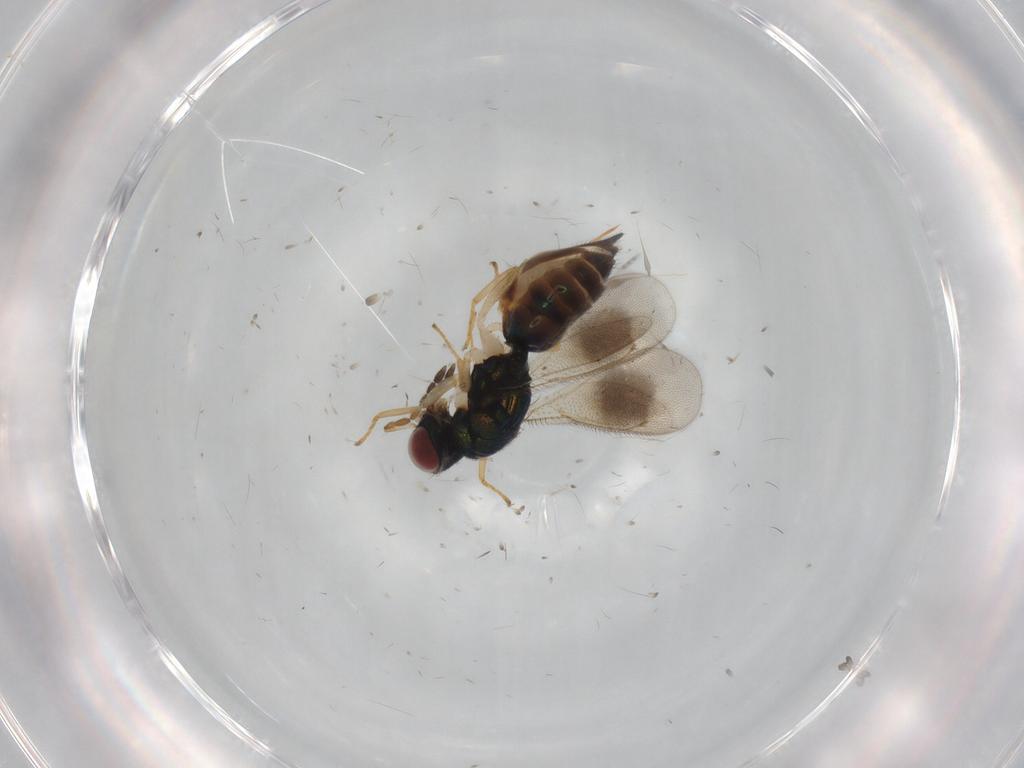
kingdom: Animalia
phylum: Arthropoda
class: Insecta
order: Hymenoptera
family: Eulophidae
